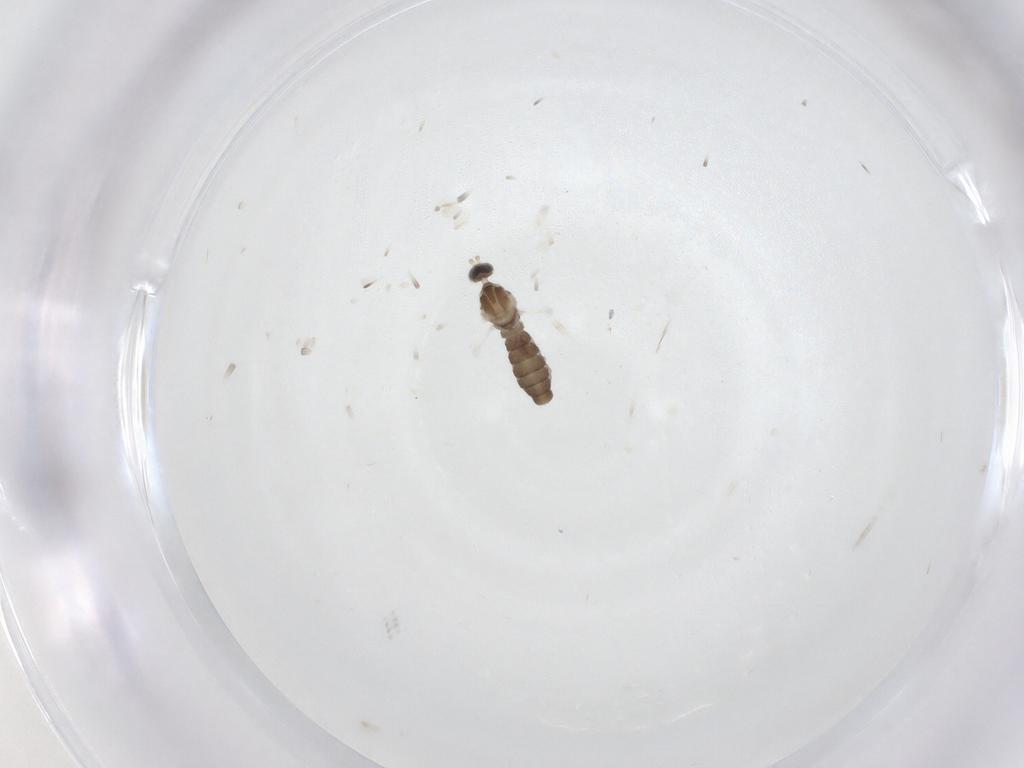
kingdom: Animalia
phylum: Arthropoda
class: Insecta
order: Diptera
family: Cecidomyiidae
